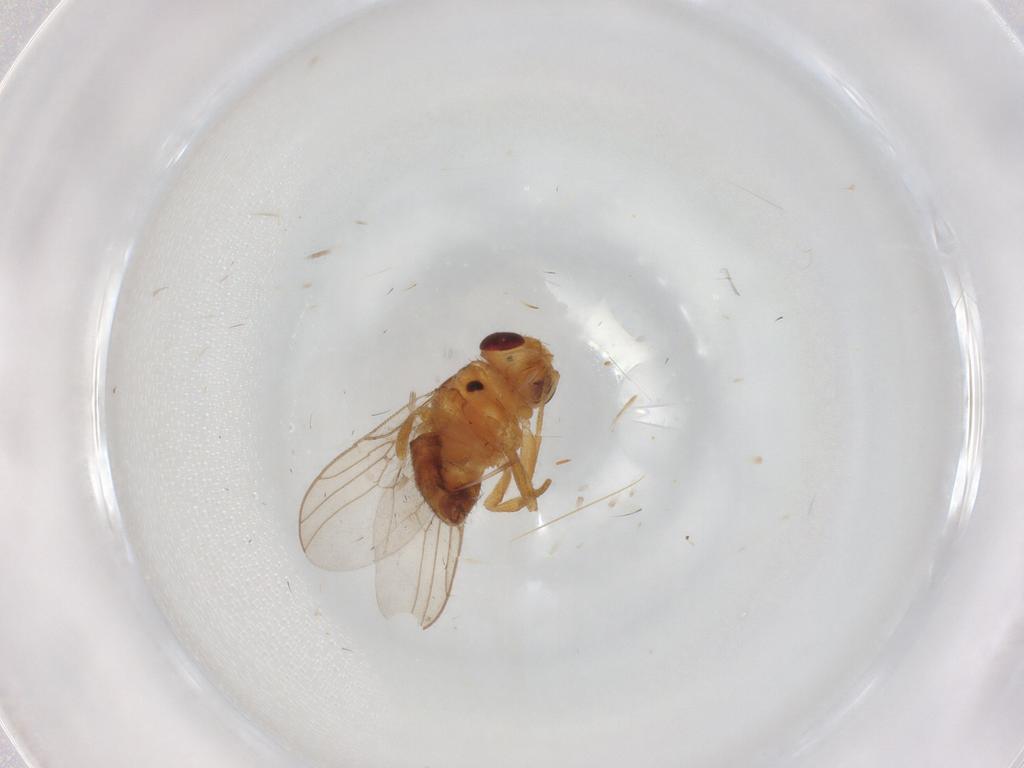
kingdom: Animalia
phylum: Arthropoda
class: Insecta
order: Diptera
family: Chloropidae
